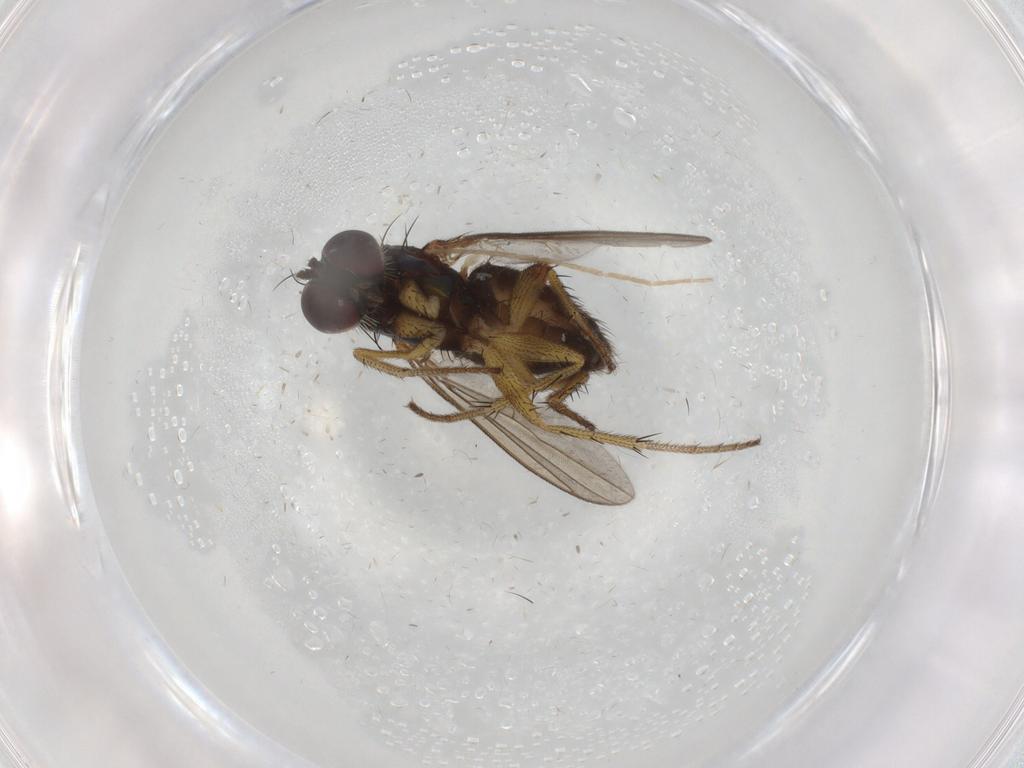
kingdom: Animalia
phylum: Arthropoda
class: Insecta
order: Diptera
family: Dolichopodidae
